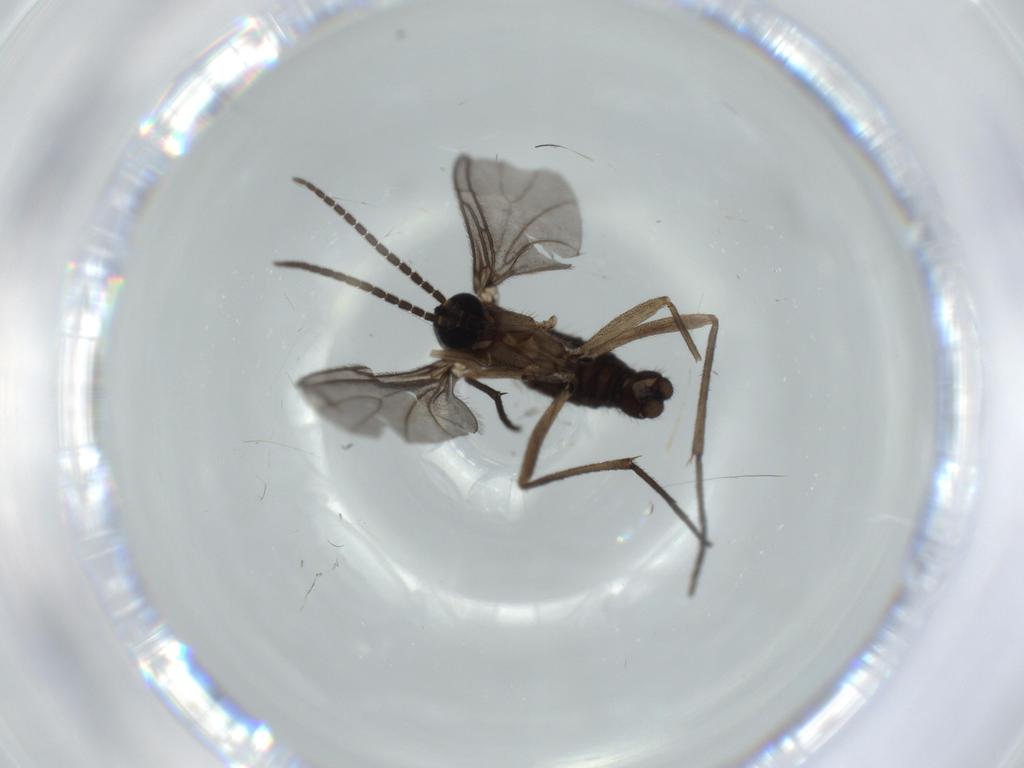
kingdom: Animalia
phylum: Arthropoda
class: Insecta
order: Diptera
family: Sciaridae
